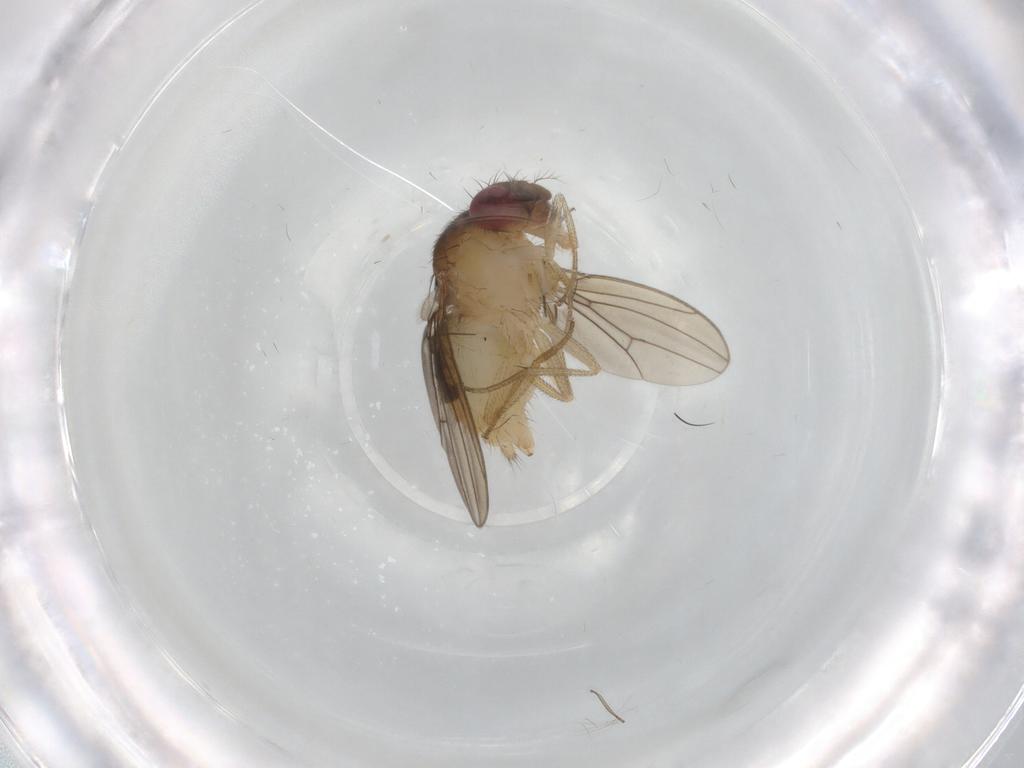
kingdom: Animalia
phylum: Arthropoda
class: Insecta
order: Diptera
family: Drosophilidae
